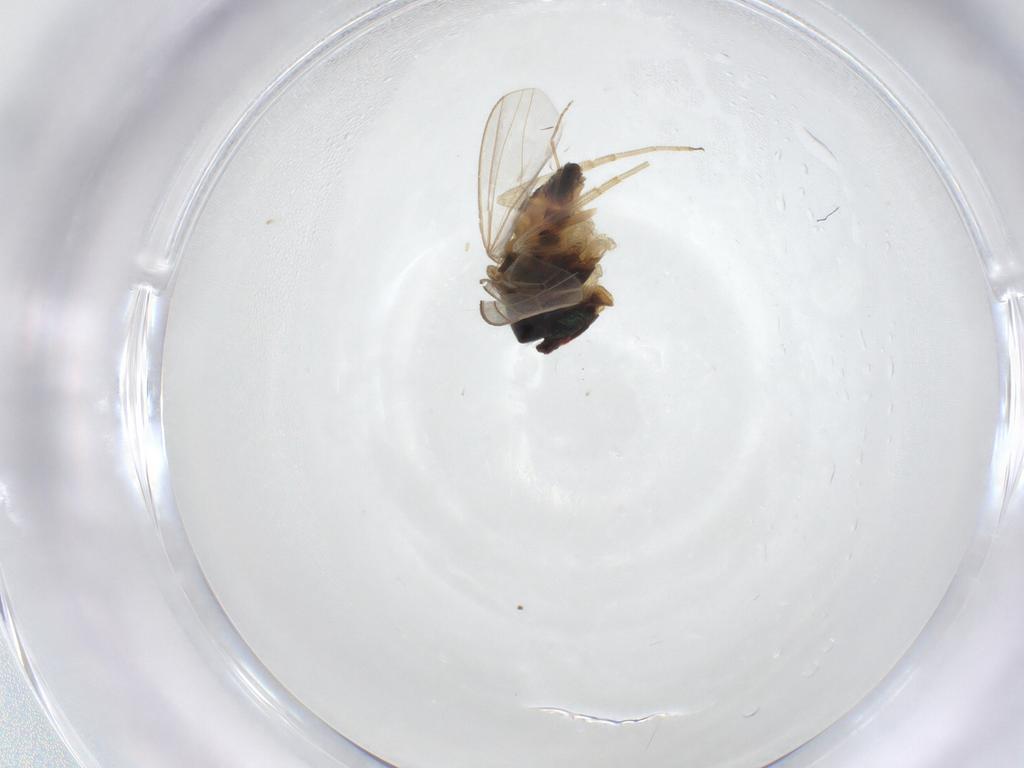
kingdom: Animalia
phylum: Arthropoda
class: Insecta
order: Diptera
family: Dolichopodidae
